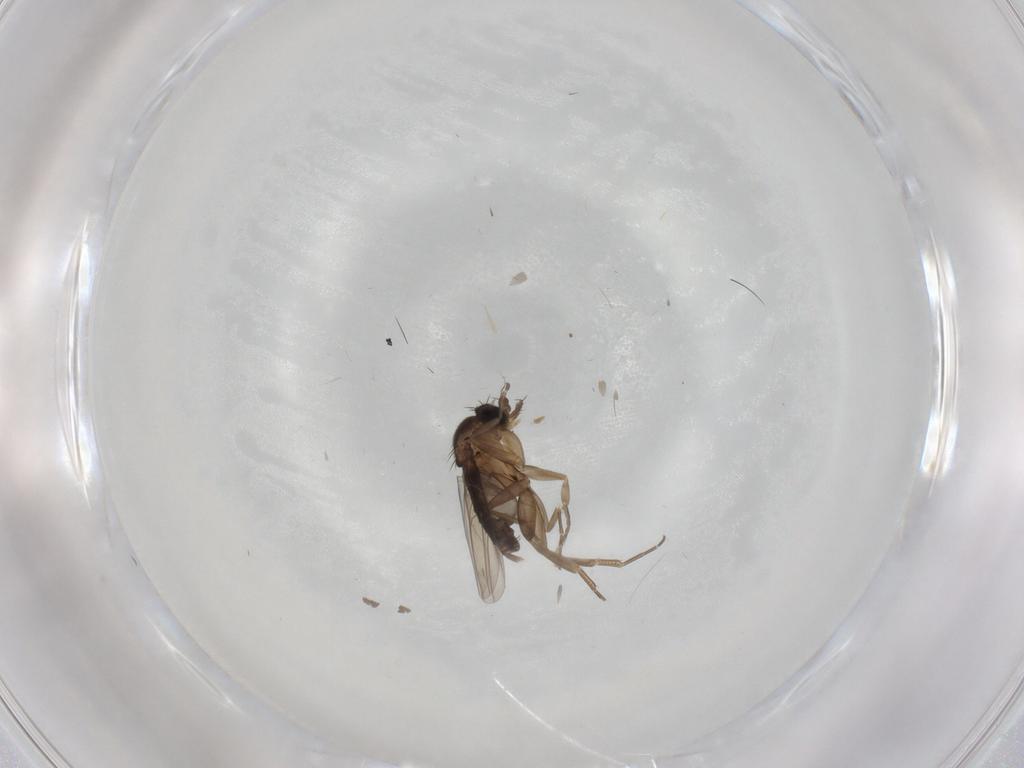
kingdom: Animalia
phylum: Arthropoda
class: Insecta
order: Diptera
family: Phoridae
